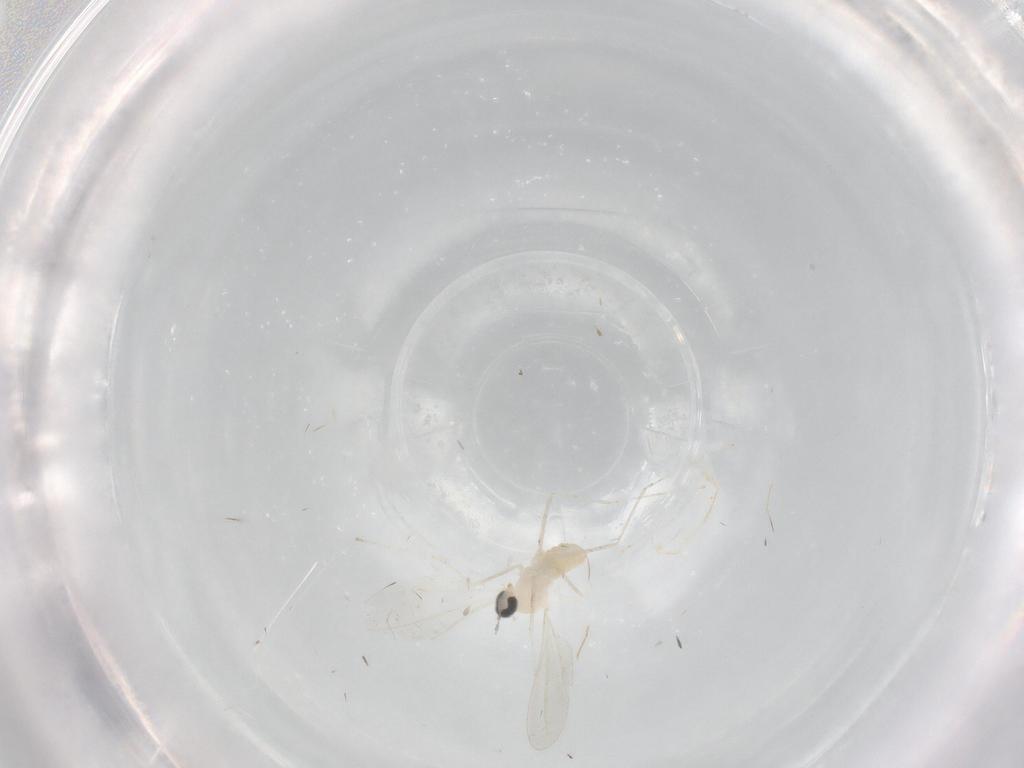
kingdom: Animalia
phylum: Arthropoda
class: Insecta
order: Diptera
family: Cecidomyiidae
